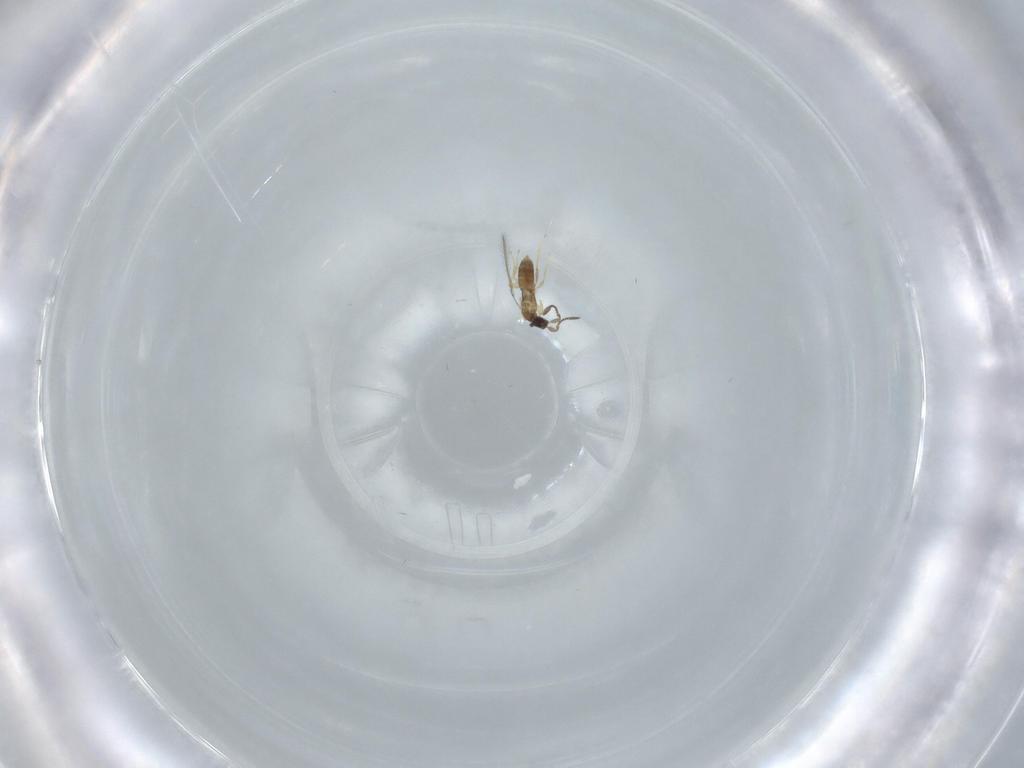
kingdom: Animalia
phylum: Arthropoda
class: Insecta
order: Hymenoptera
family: Mymaridae
